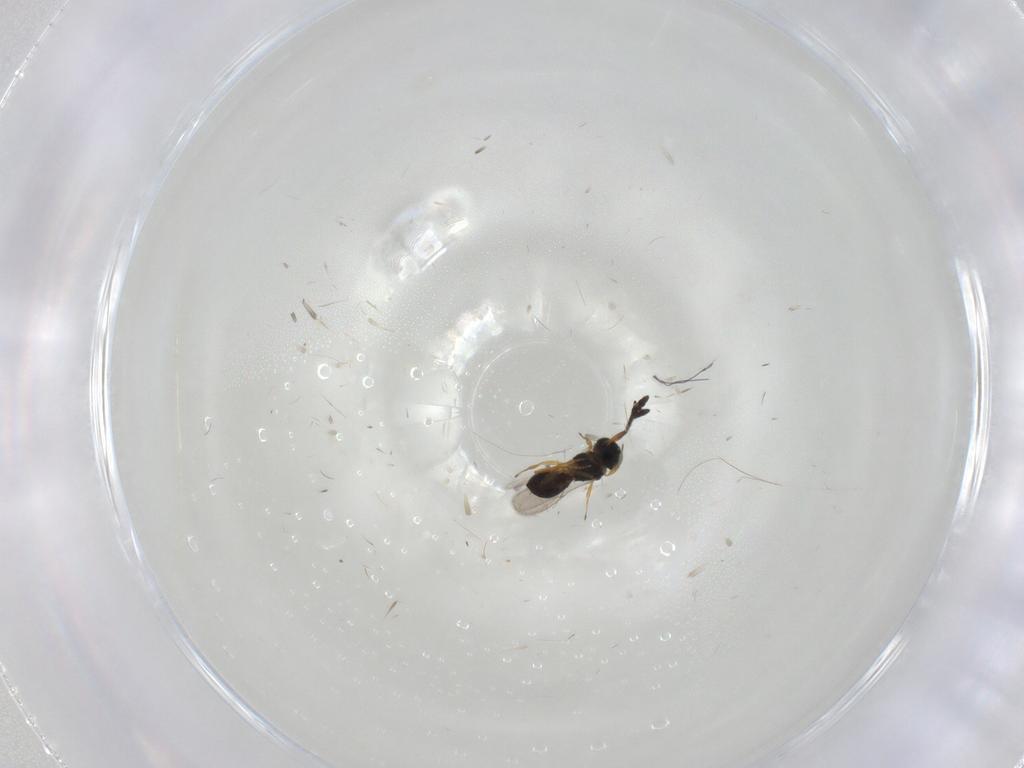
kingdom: Animalia
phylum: Arthropoda
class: Insecta
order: Hymenoptera
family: Scelionidae
